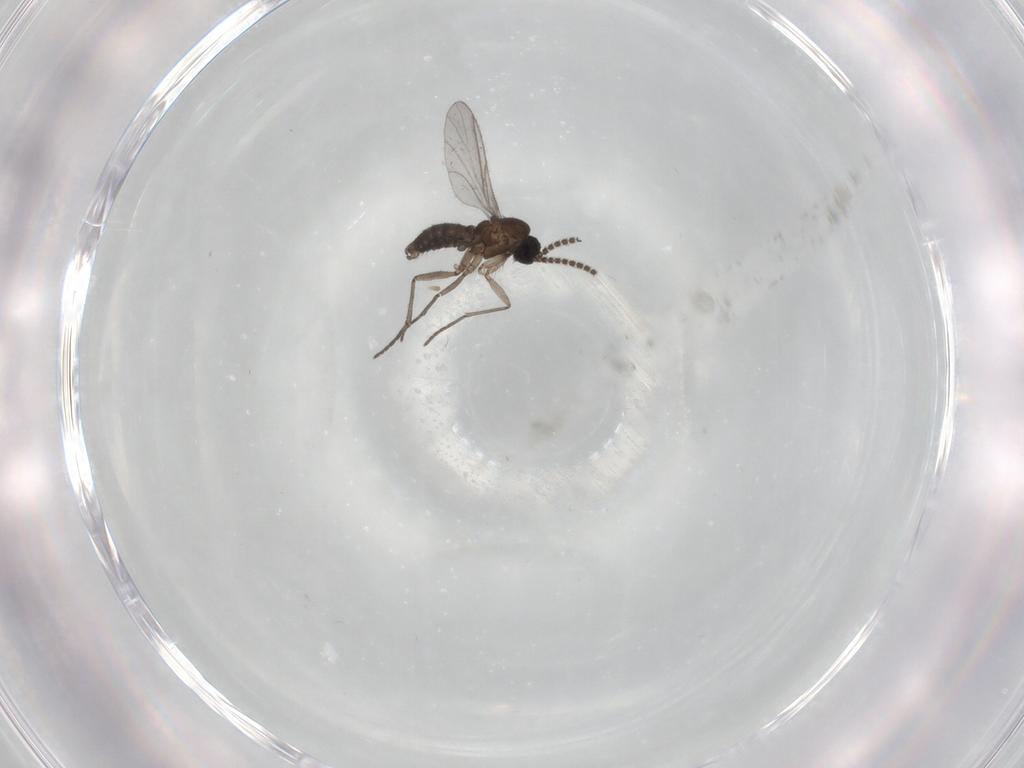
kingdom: Animalia
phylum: Arthropoda
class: Insecta
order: Diptera
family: Chironomidae
